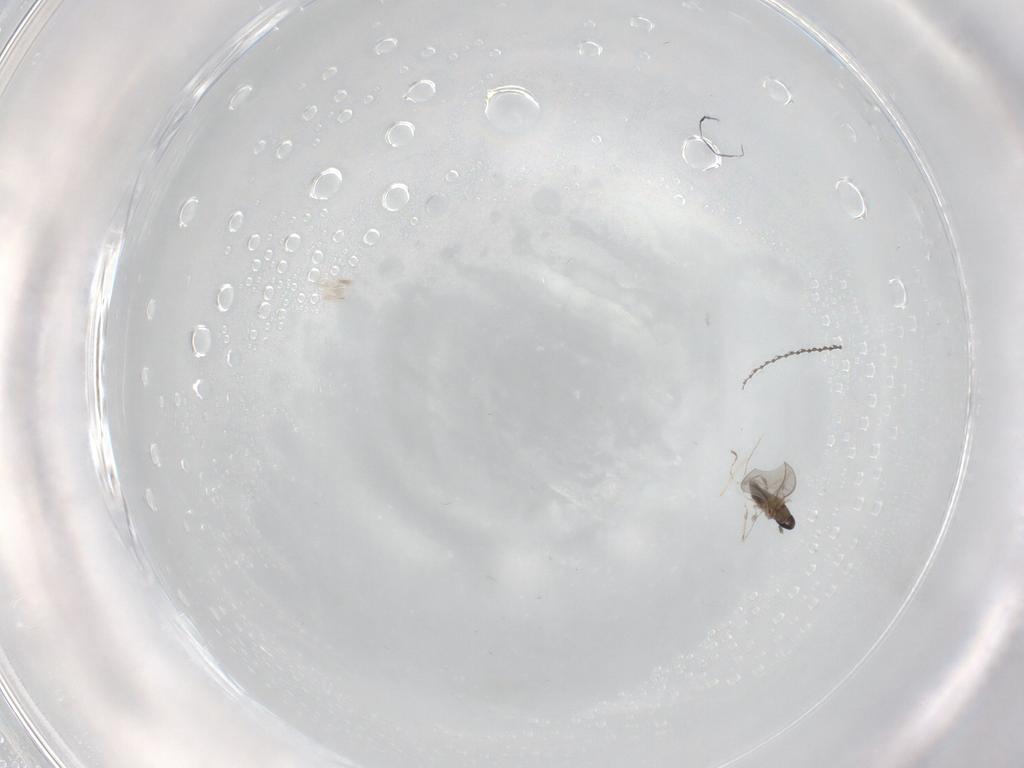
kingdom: Animalia
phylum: Arthropoda
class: Insecta
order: Diptera
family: Cecidomyiidae
